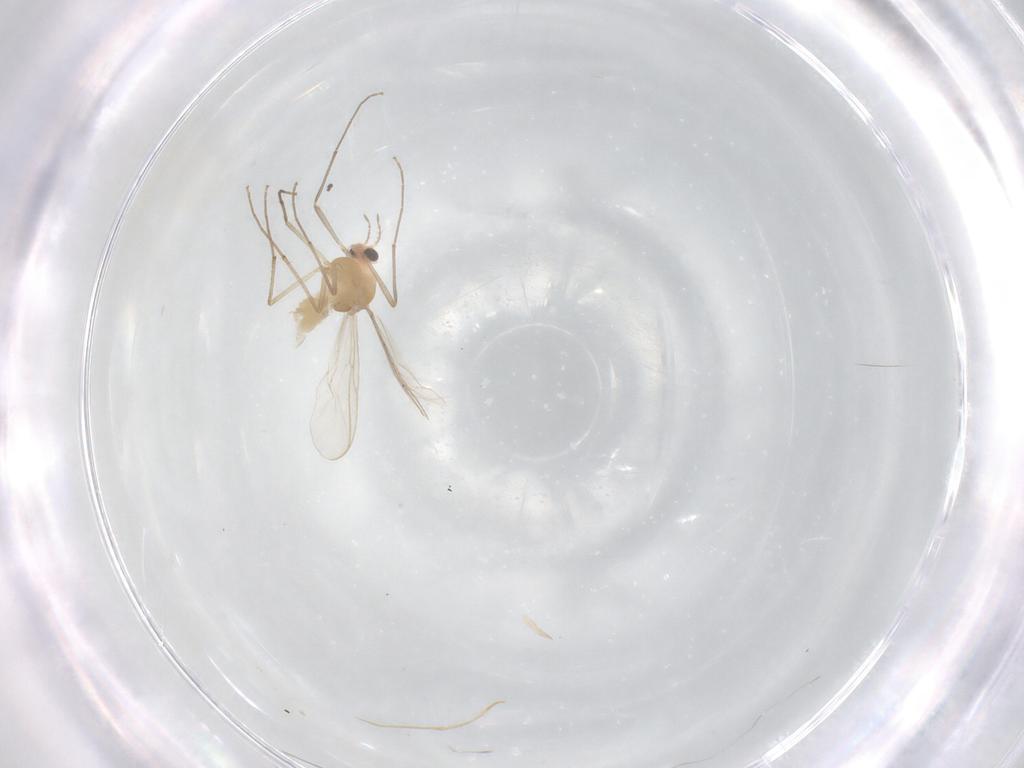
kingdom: Animalia
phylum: Arthropoda
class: Insecta
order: Diptera
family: Chironomidae
